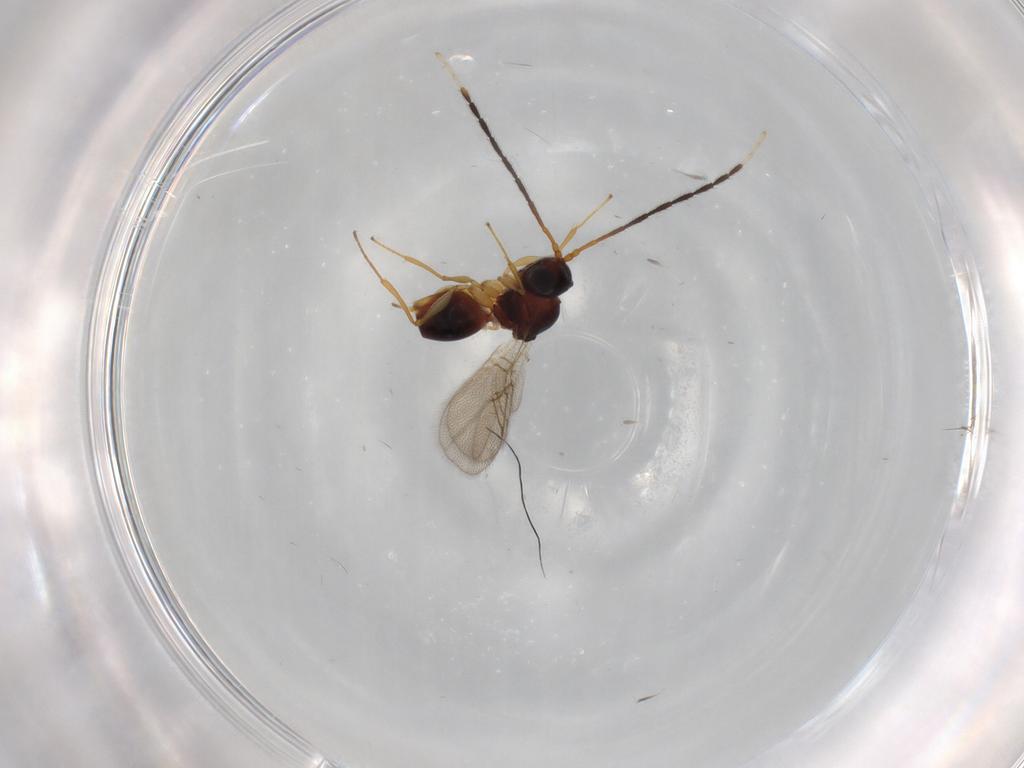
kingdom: Animalia
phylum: Arthropoda
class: Insecta
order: Hymenoptera
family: Figitidae
